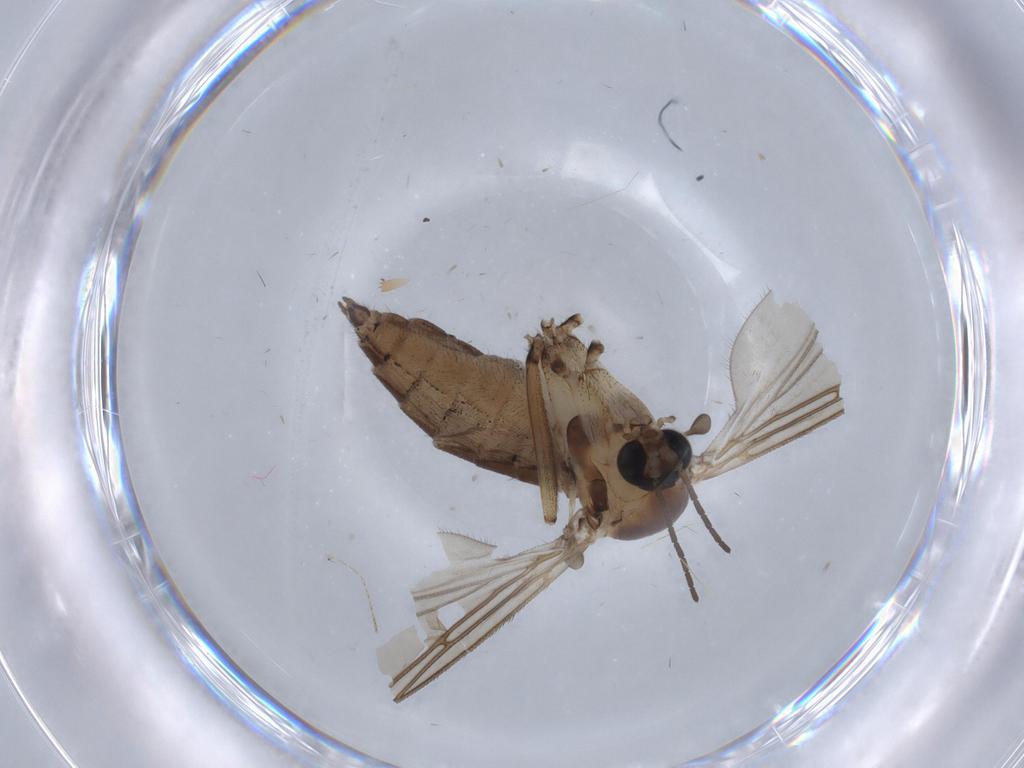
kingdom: Animalia
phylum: Arthropoda
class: Insecta
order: Diptera
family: Cecidomyiidae
